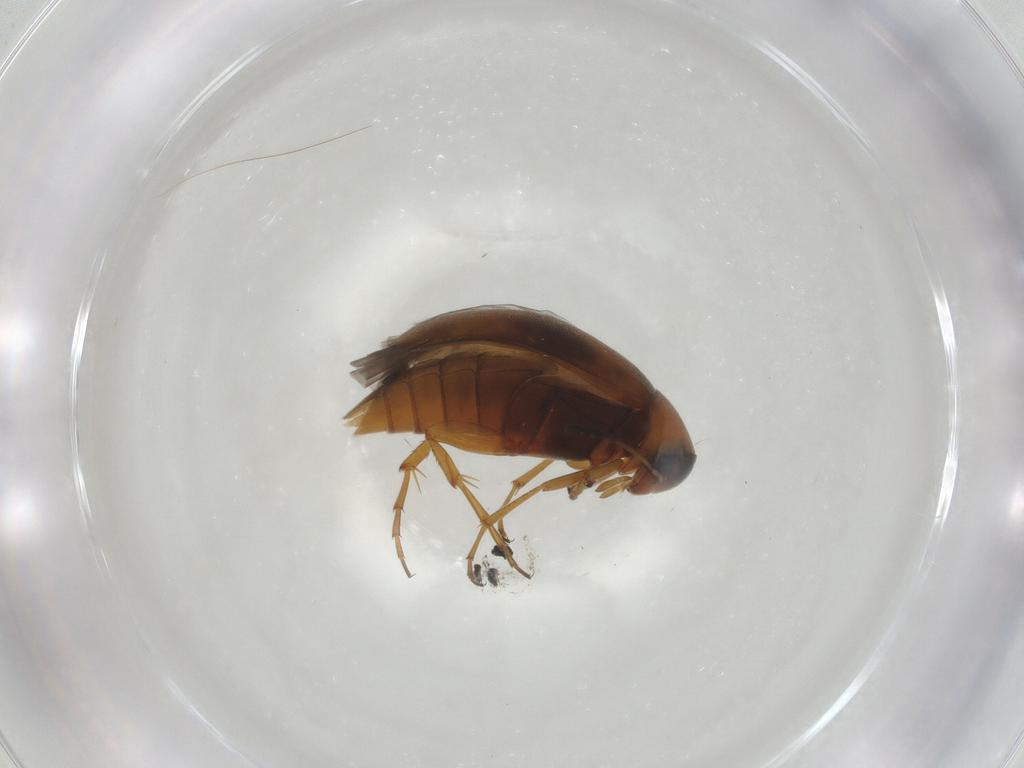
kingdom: Animalia
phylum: Arthropoda
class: Insecta
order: Coleoptera
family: Scraptiidae
